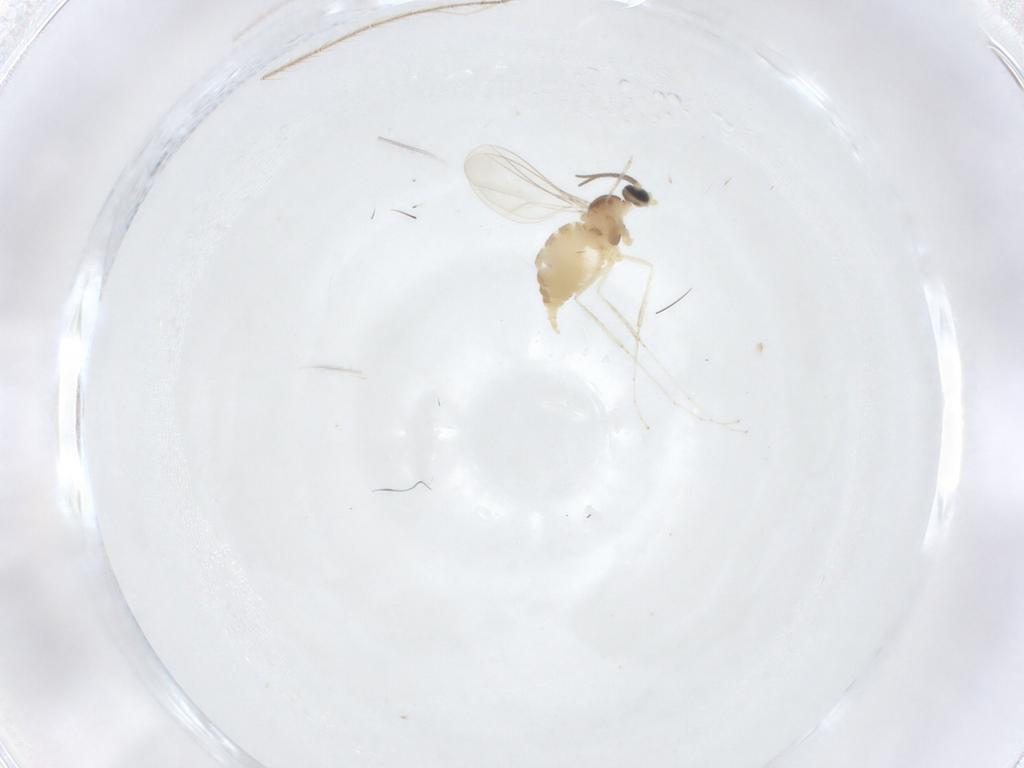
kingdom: Animalia
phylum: Arthropoda
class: Insecta
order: Diptera
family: Culicidae
